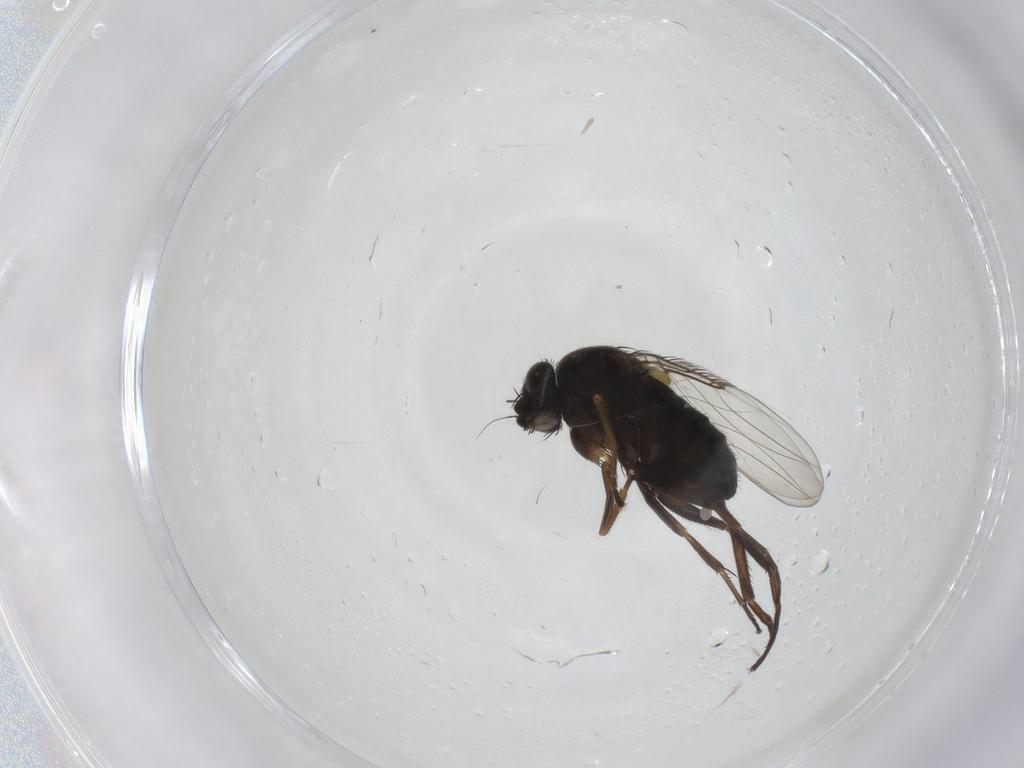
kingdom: Animalia
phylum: Arthropoda
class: Insecta
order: Diptera
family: Phoridae
